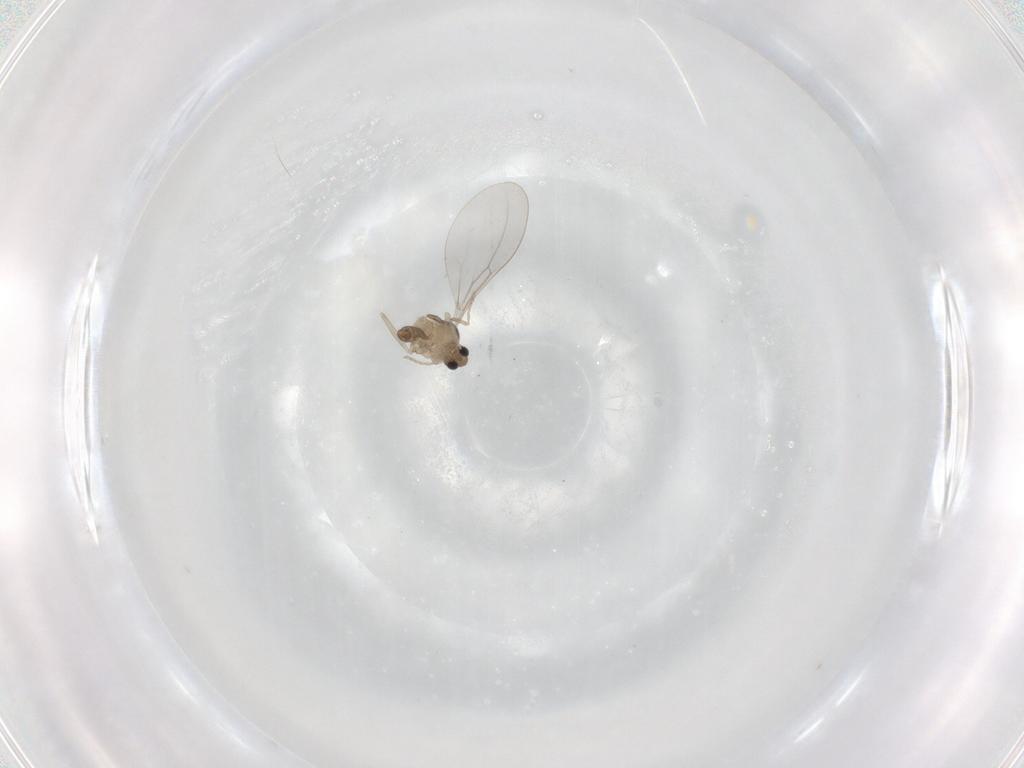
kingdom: Animalia
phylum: Arthropoda
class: Insecta
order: Diptera
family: Cecidomyiidae
